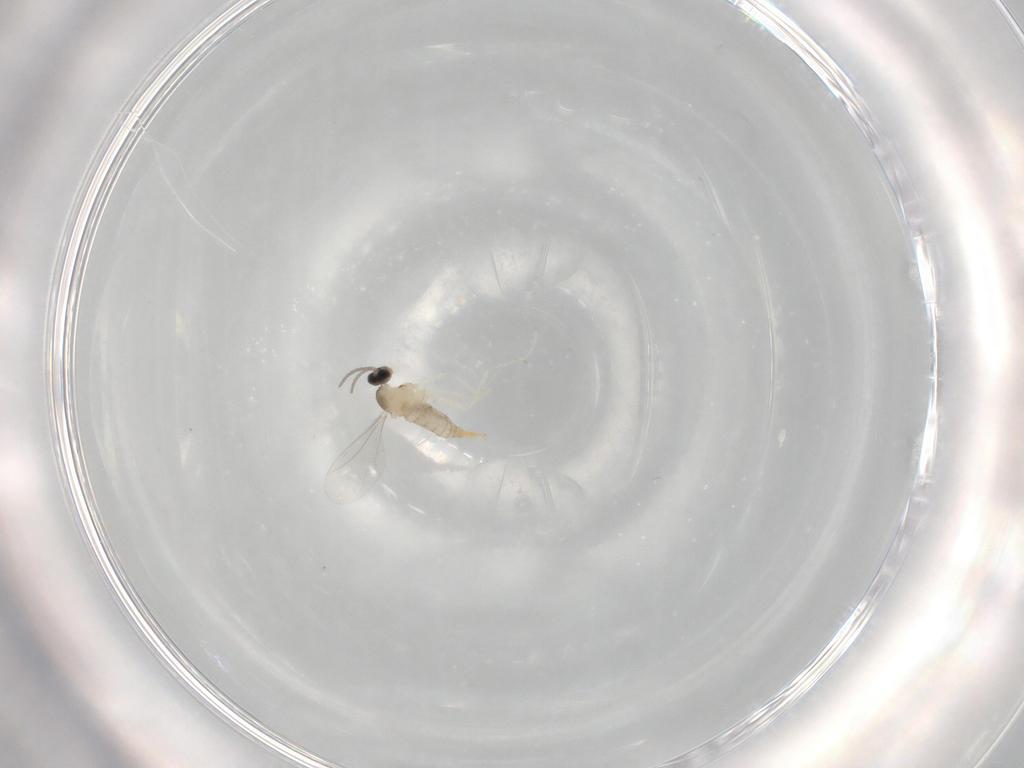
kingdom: Animalia
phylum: Arthropoda
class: Insecta
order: Diptera
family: Cecidomyiidae
